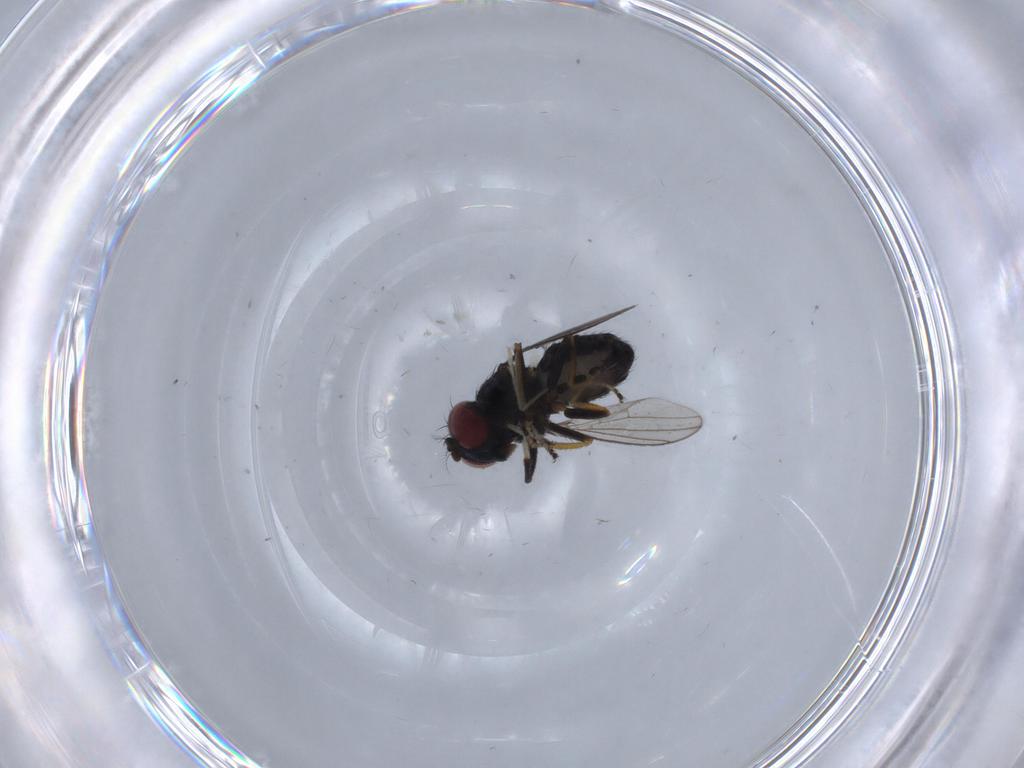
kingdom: Animalia
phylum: Arthropoda
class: Insecta
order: Diptera
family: Ephydridae
